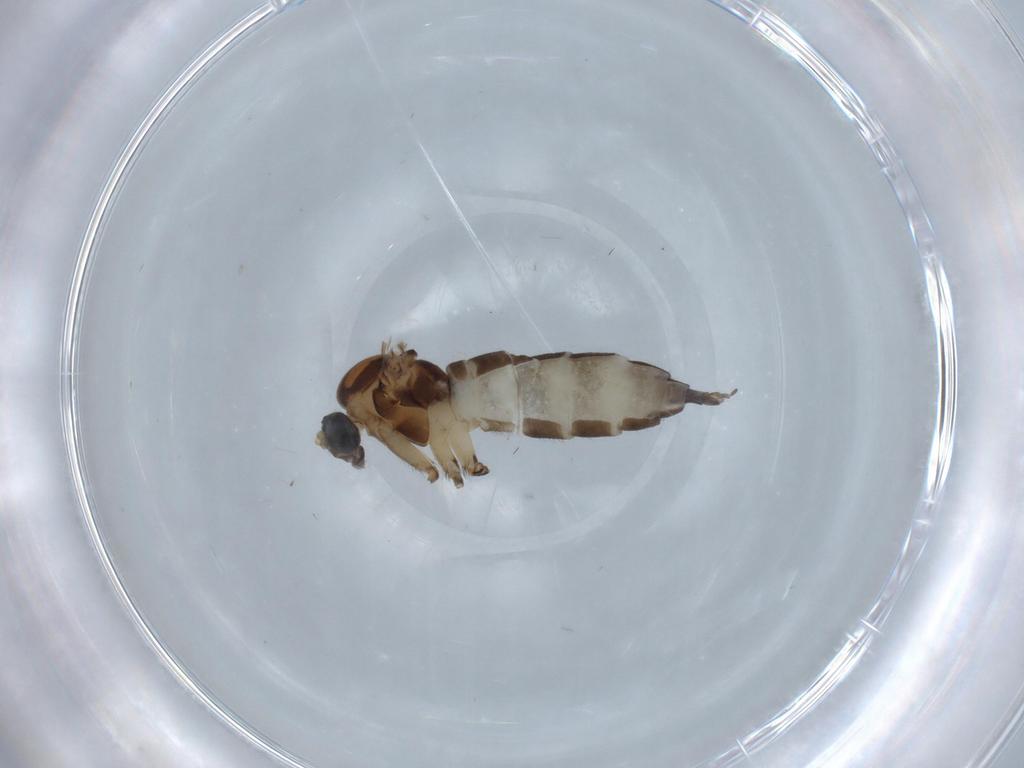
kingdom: Animalia
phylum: Arthropoda
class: Insecta
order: Diptera
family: Sciaridae
